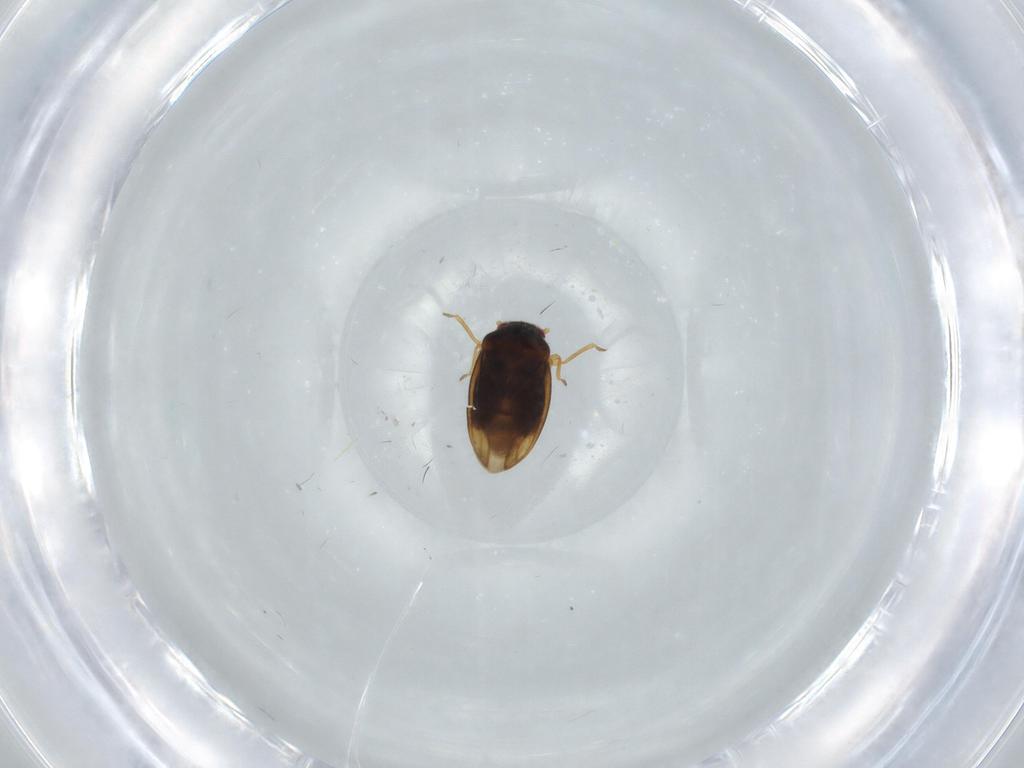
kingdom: Animalia
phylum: Arthropoda
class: Insecta
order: Hemiptera
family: Schizopteridae
